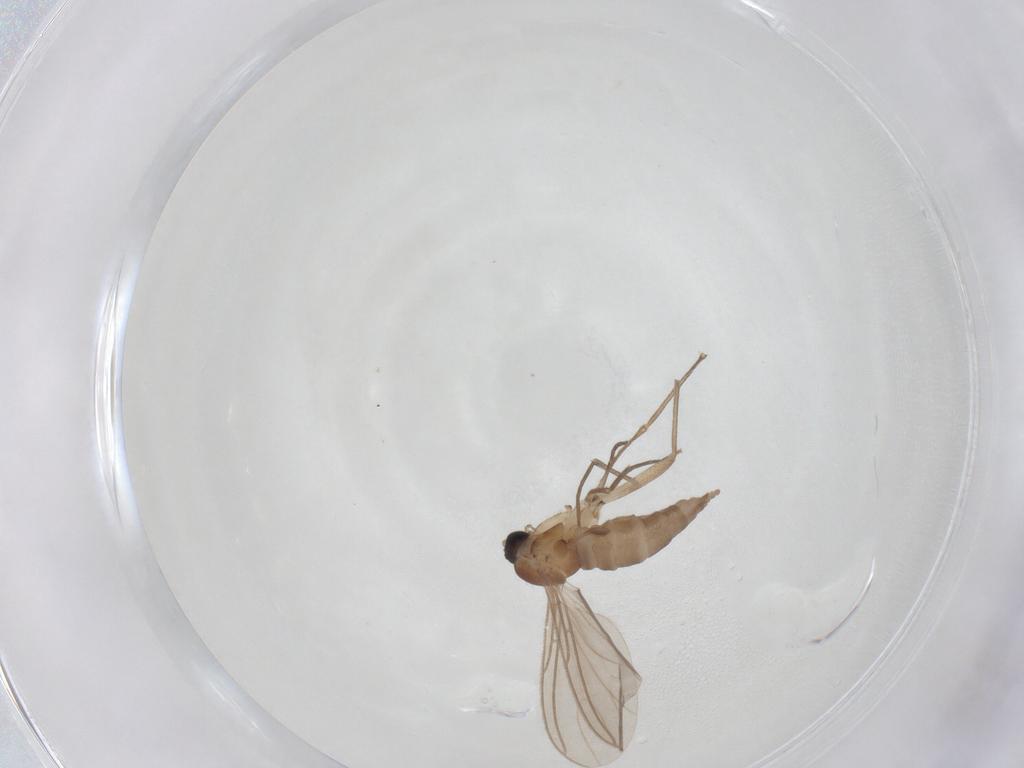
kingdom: Animalia
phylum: Arthropoda
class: Insecta
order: Diptera
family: Sciaridae
